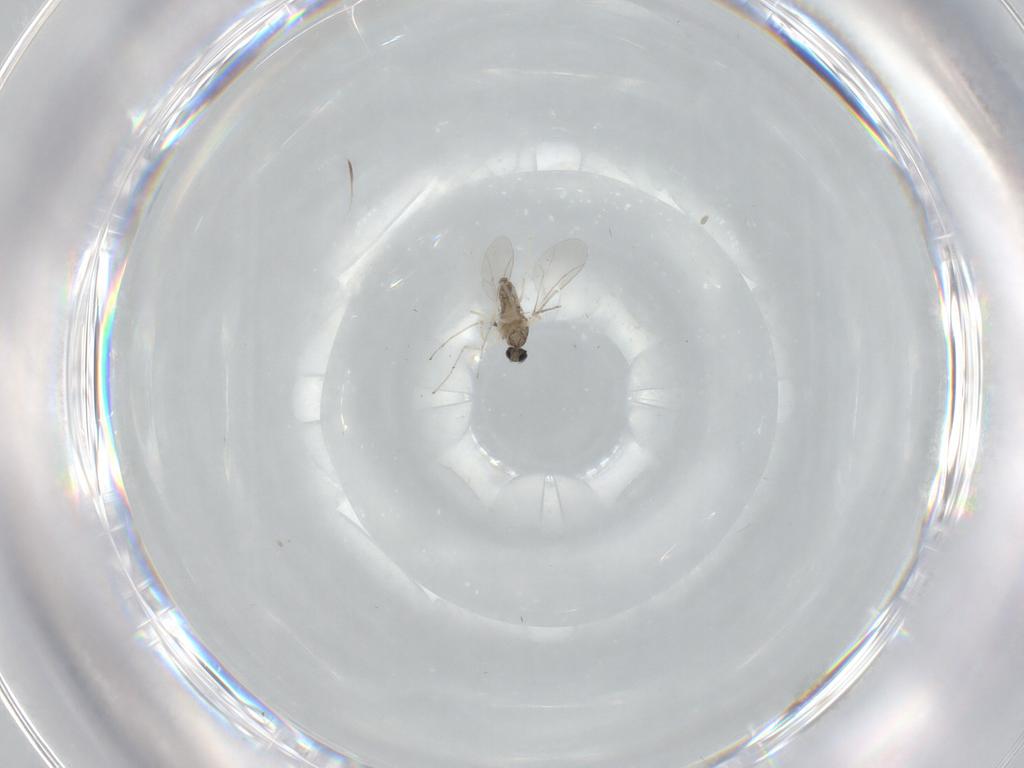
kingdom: Animalia
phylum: Arthropoda
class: Insecta
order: Diptera
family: Cecidomyiidae
